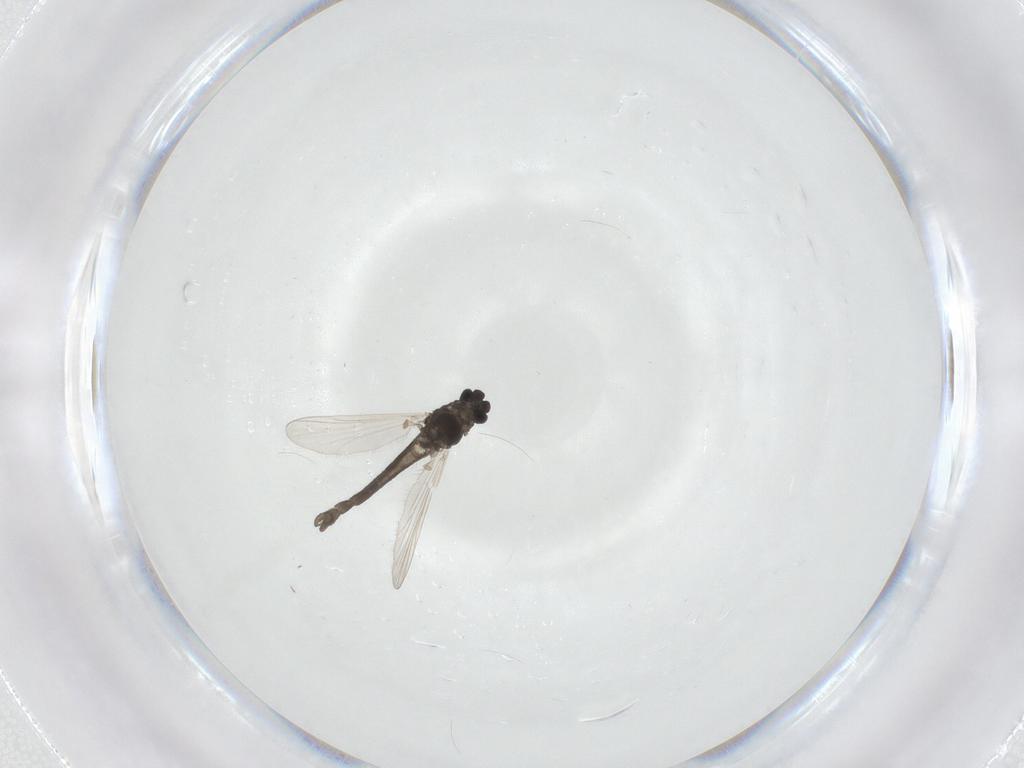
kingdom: Animalia
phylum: Arthropoda
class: Insecta
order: Diptera
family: Chironomidae
